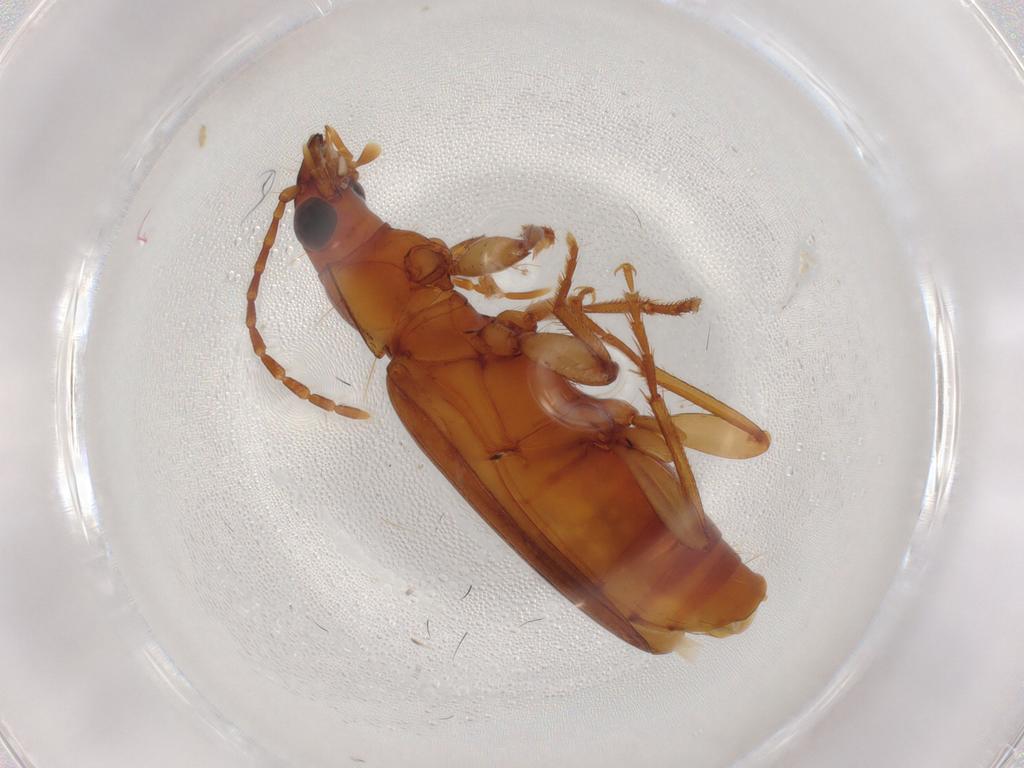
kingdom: Animalia
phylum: Arthropoda
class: Insecta
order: Coleoptera
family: Carabidae
